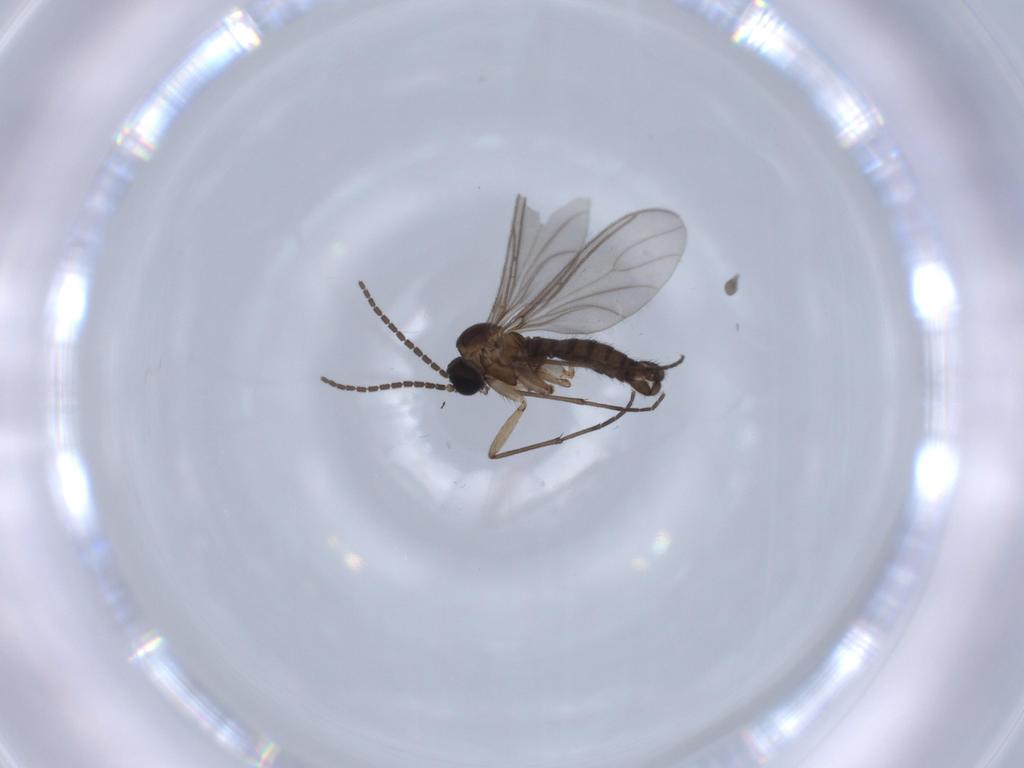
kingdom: Animalia
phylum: Arthropoda
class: Insecta
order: Diptera
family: Sciaridae
